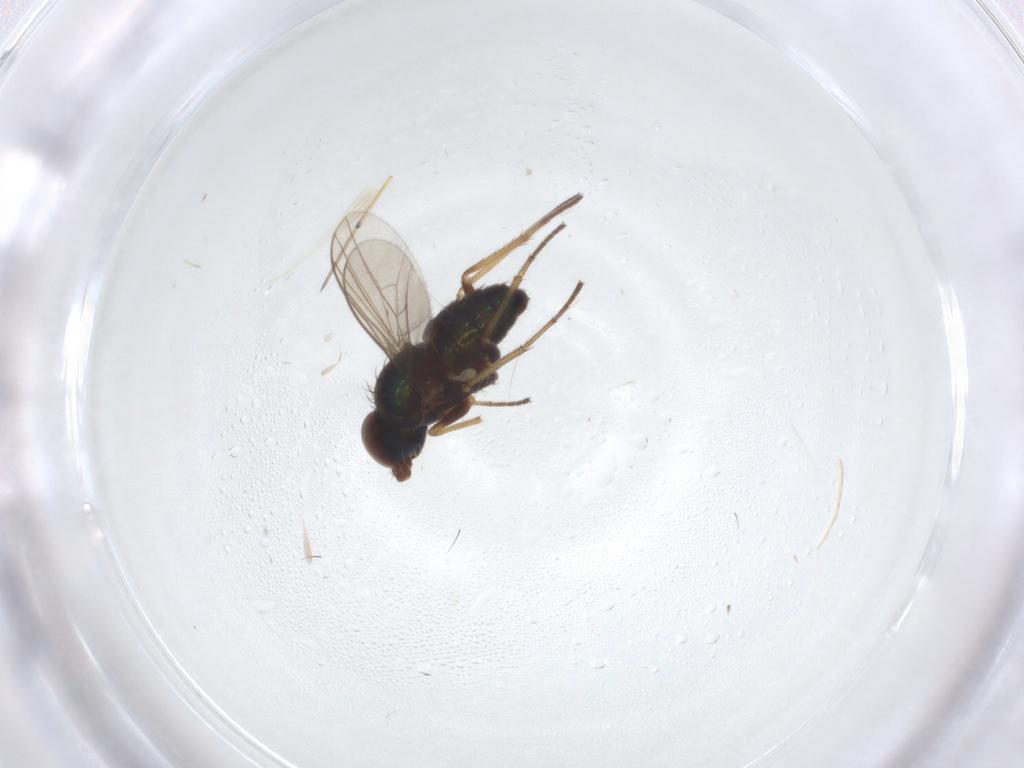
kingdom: Animalia
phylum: Arthropoda
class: Insecta
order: Diptera
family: Dolichopodidae
